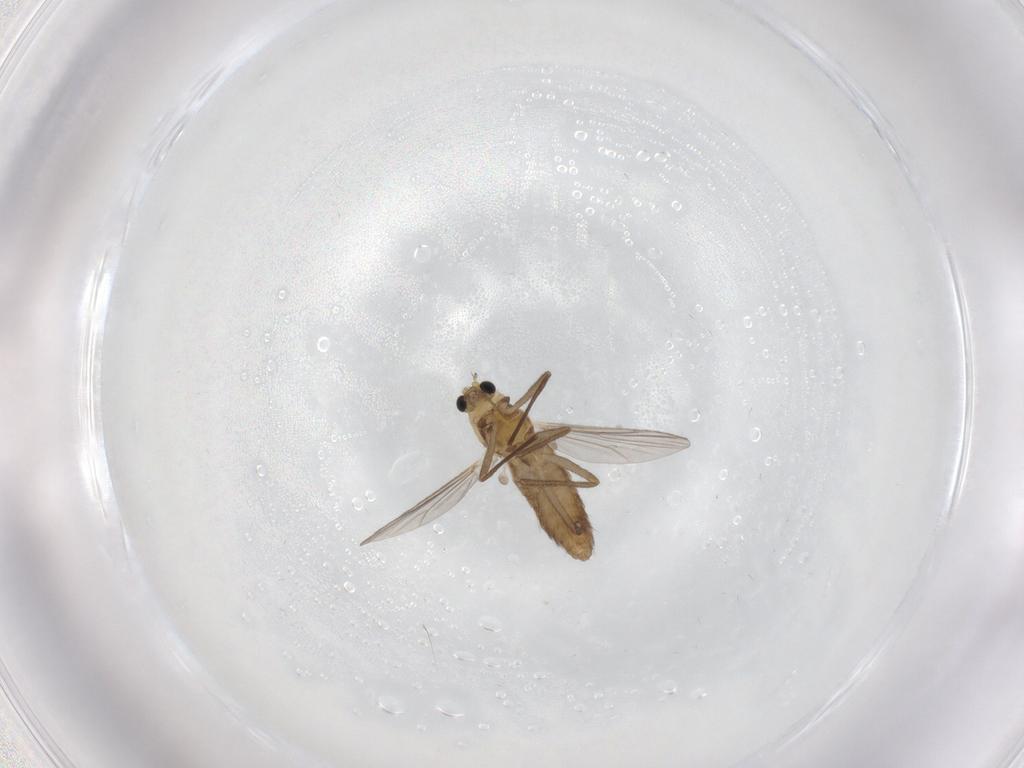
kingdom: Animalia
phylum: Arthropoda
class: Insecta
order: Diptera
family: Chironomidae
